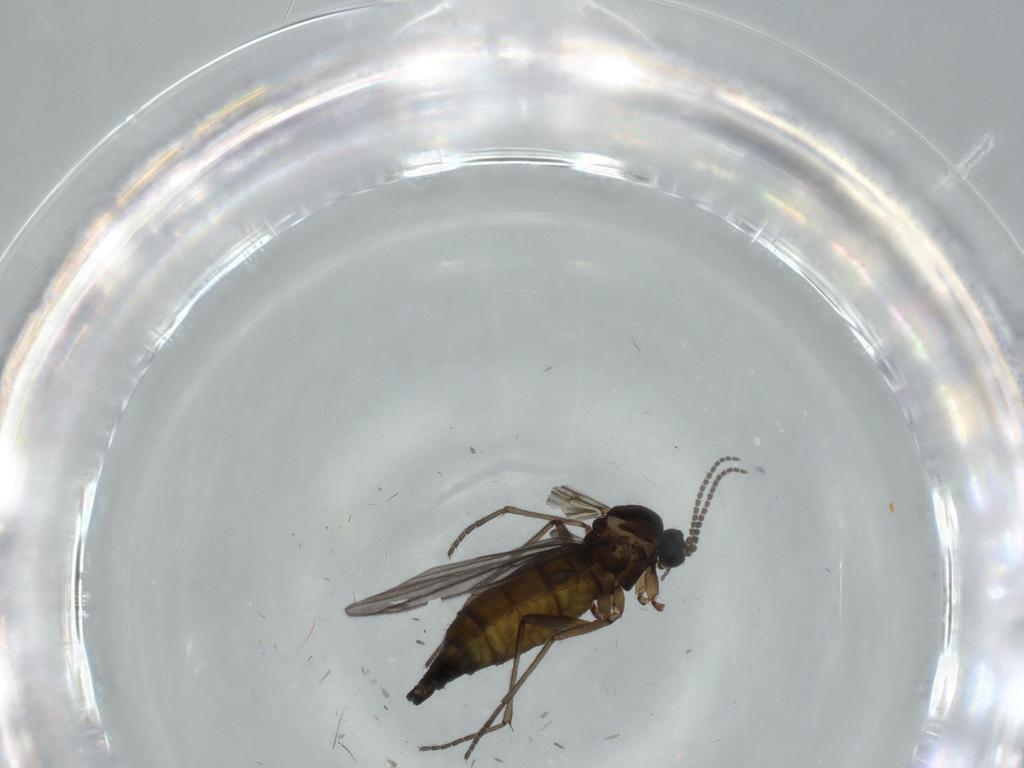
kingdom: Animalia
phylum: Arthropoda
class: Insecta
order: Diptera
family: Sciaridae
